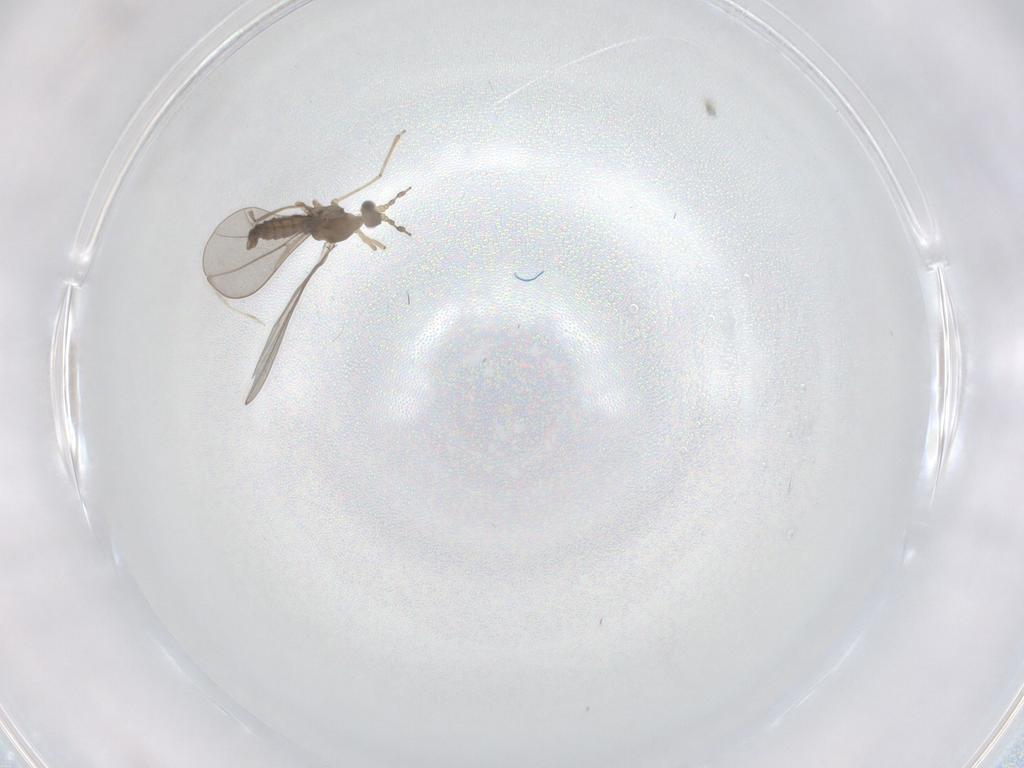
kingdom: Animalia
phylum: Arthropoda
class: Insecta
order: Diptera
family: Cecidomyiidae
